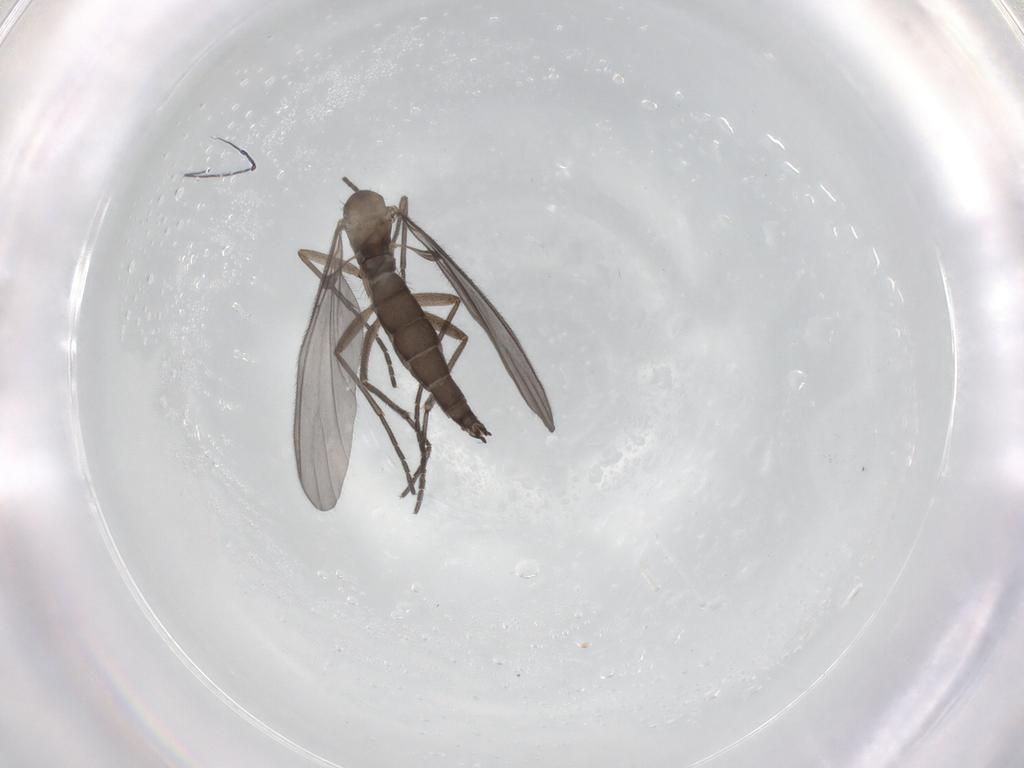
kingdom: Animalia
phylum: Arthropoda
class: Insecta
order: Diptera
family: Sciaridae
